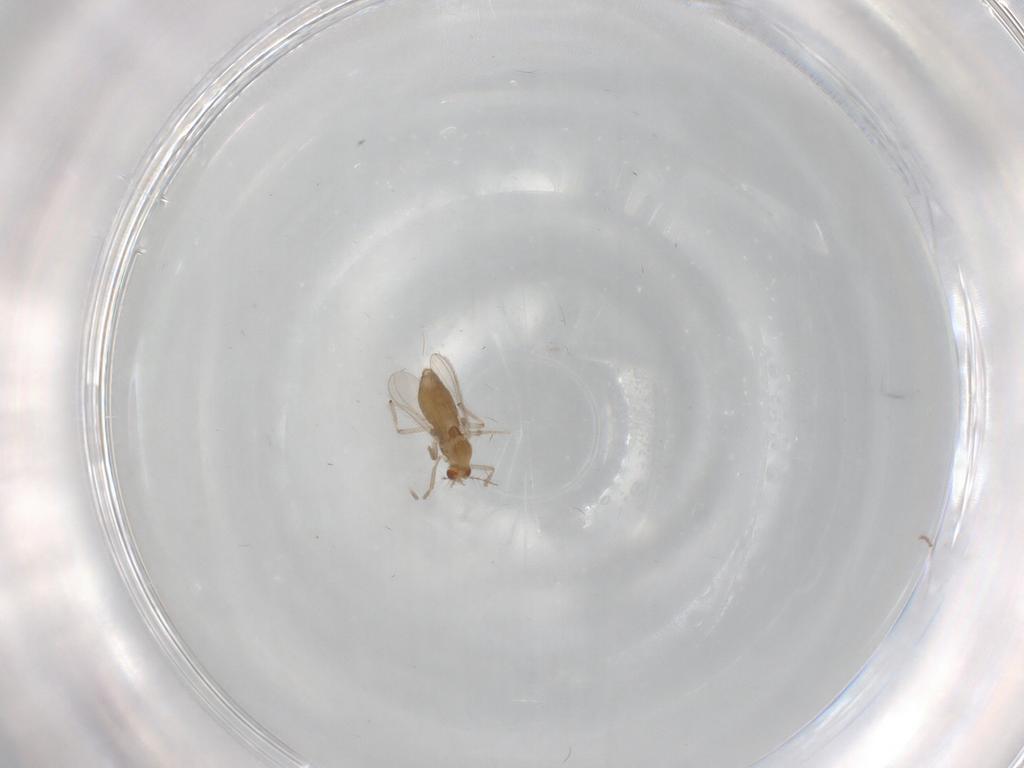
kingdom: Animalia
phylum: Arthropoda
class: Insecta
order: Diptera
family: Chironomidae
